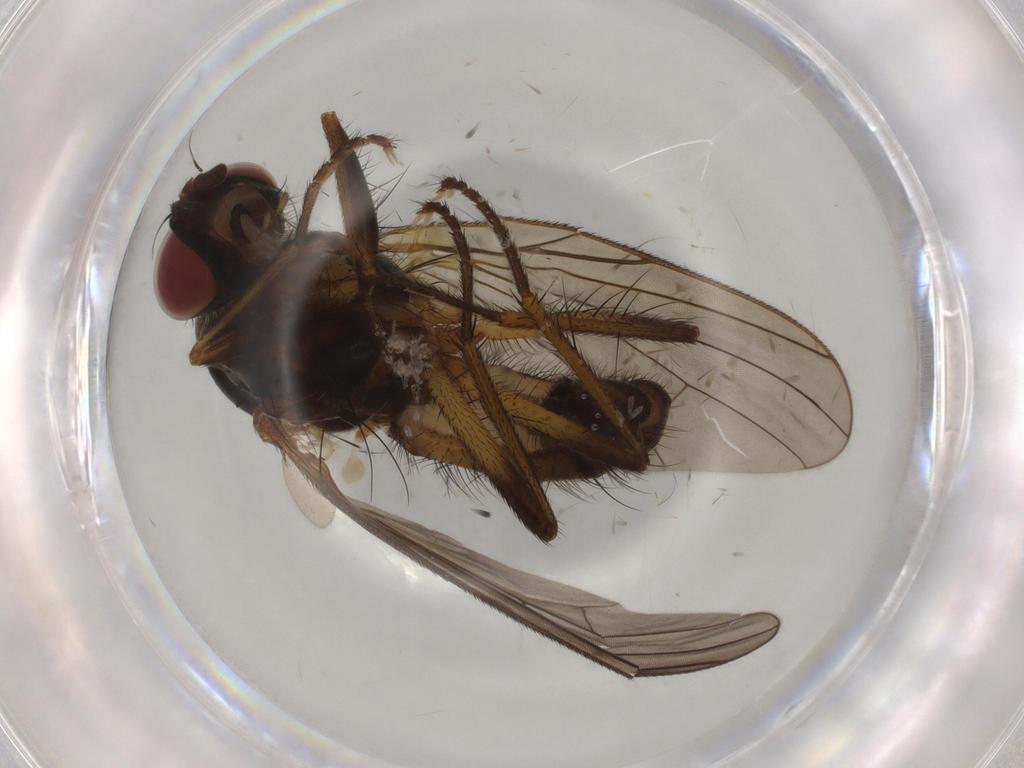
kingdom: Animalia
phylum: Arthropoda
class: Insecta
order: Diptera
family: Anthomyiidae
